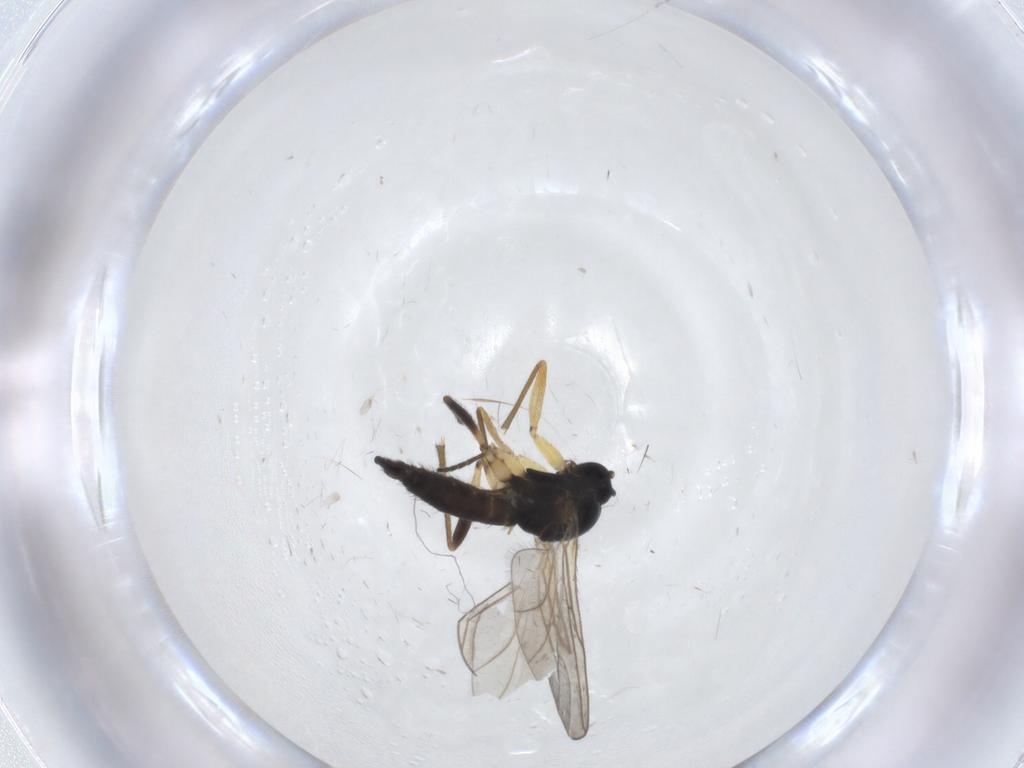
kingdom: Animalia
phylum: Arthropoda
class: Insecta
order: Diptera
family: Sciaridae
